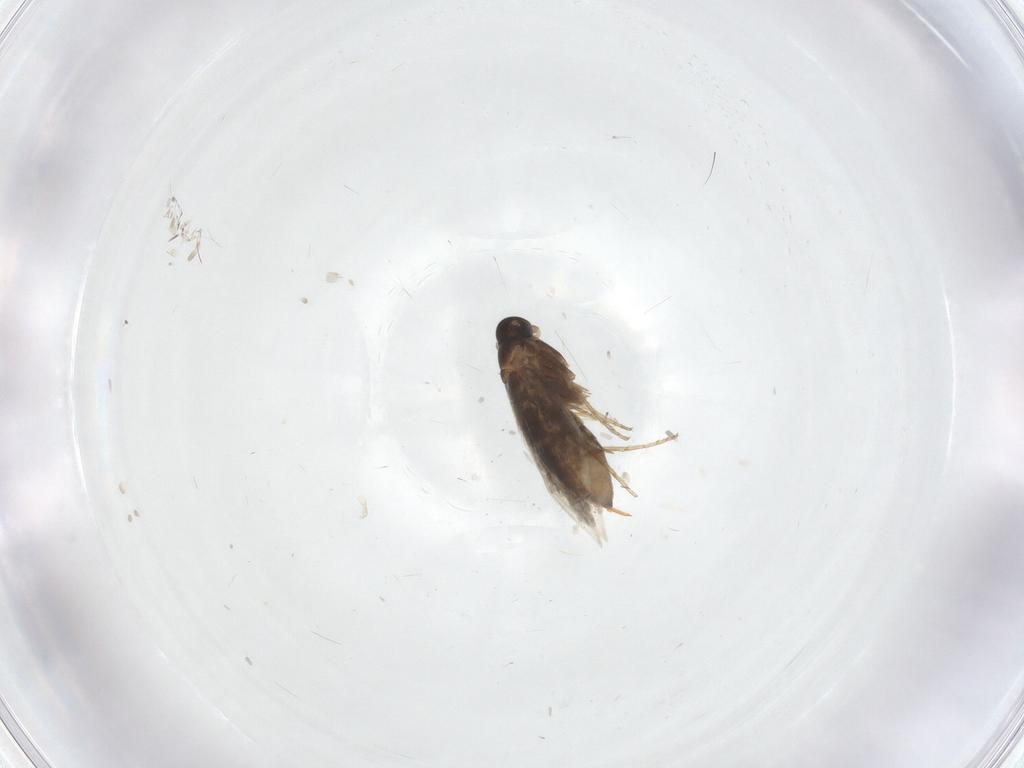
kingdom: Animalia
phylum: Arthropoda
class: Insecta
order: Lepidoptera
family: Heliozelidae
